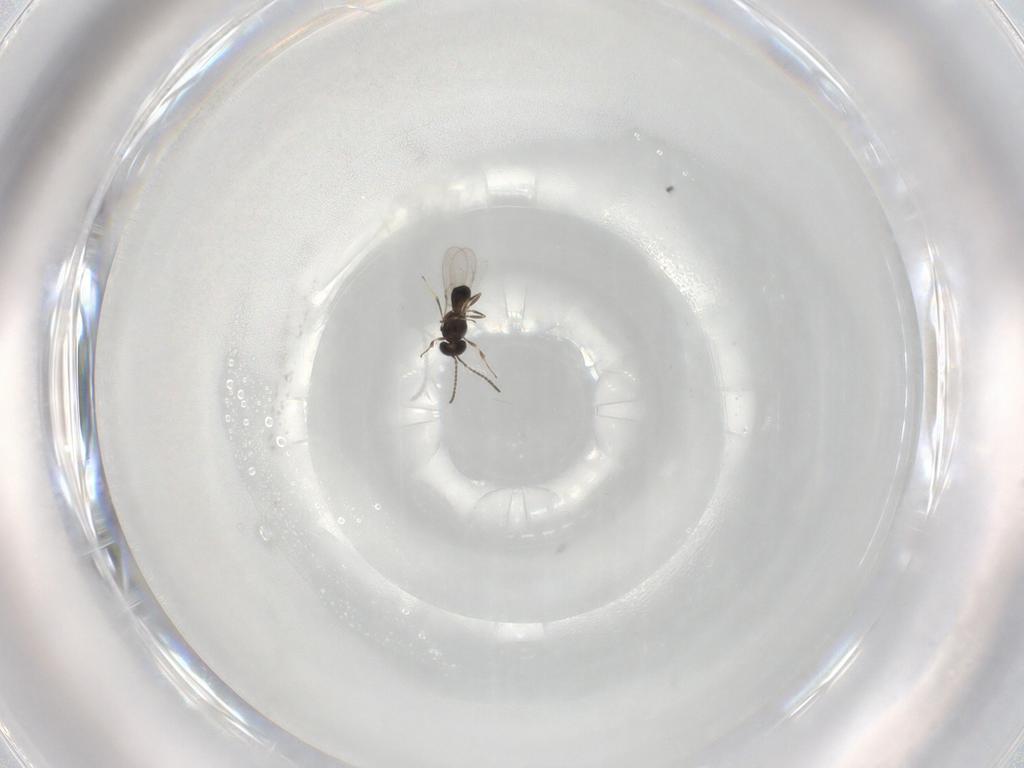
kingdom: Animalia
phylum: Arthropoda
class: Insecta
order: Hymenoptera
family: Scelionidae
